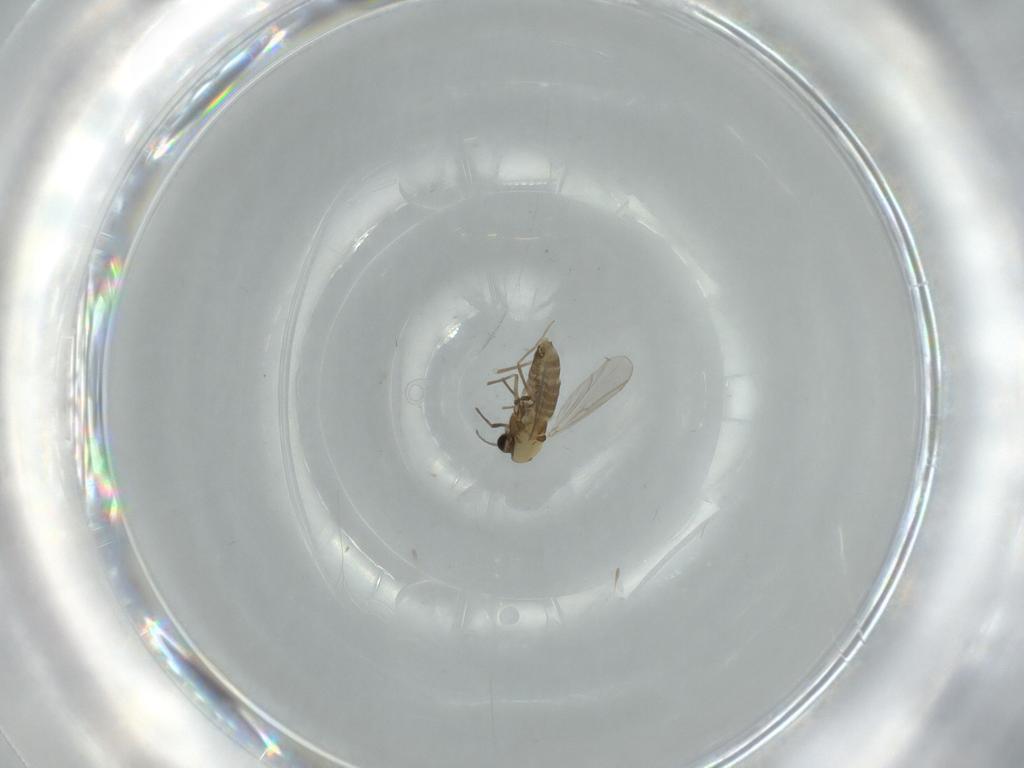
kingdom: Animalia
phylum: Arthropoda
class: Insecta
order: Diptera
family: Chironomidae
